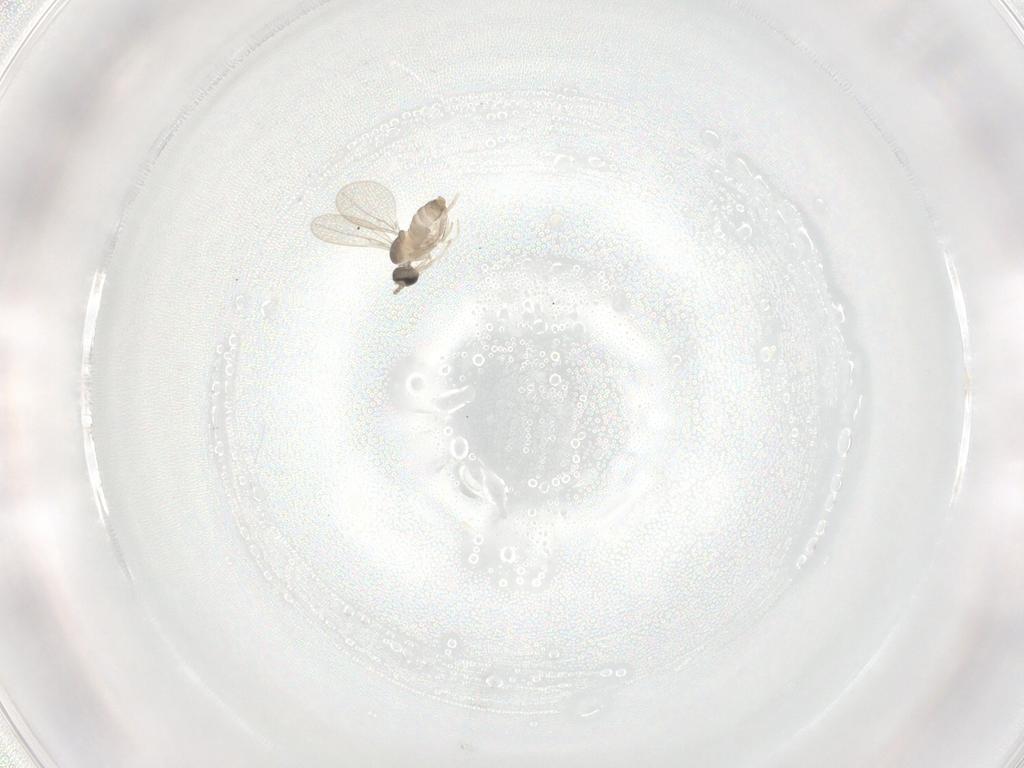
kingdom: Animalia
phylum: Arthropoda
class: Insecta
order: Diptera
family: Cecidomyiidae
